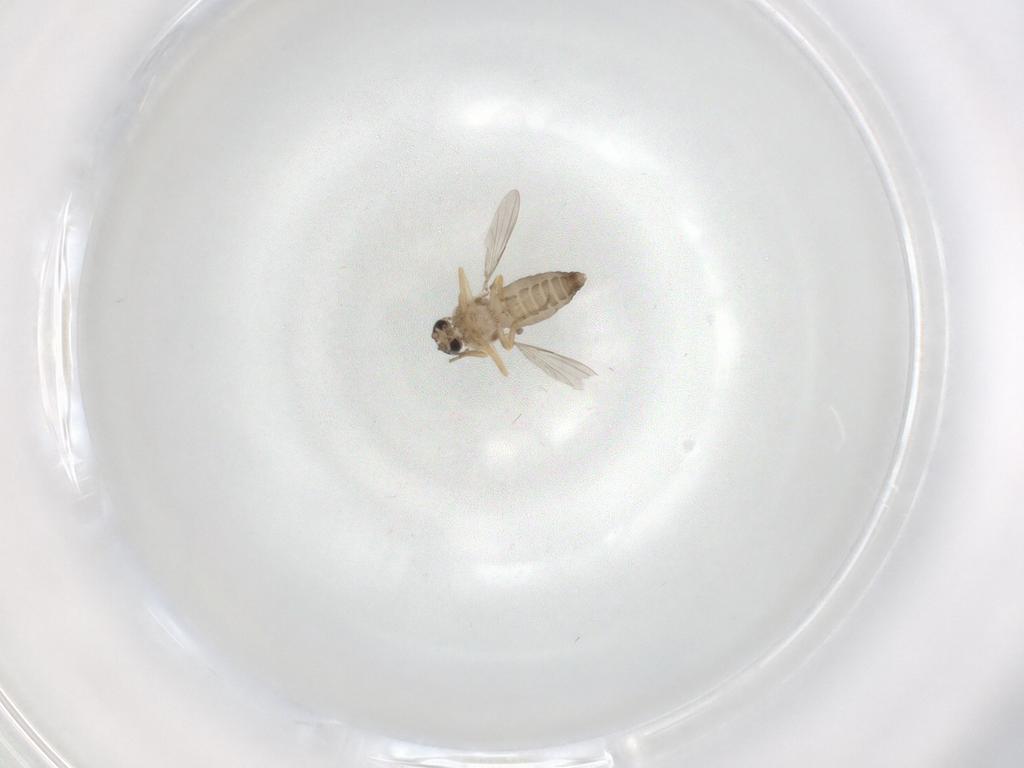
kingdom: Animalia
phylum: Arthropoda
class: Insecta
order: Diptera
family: Ceratopogonidae
